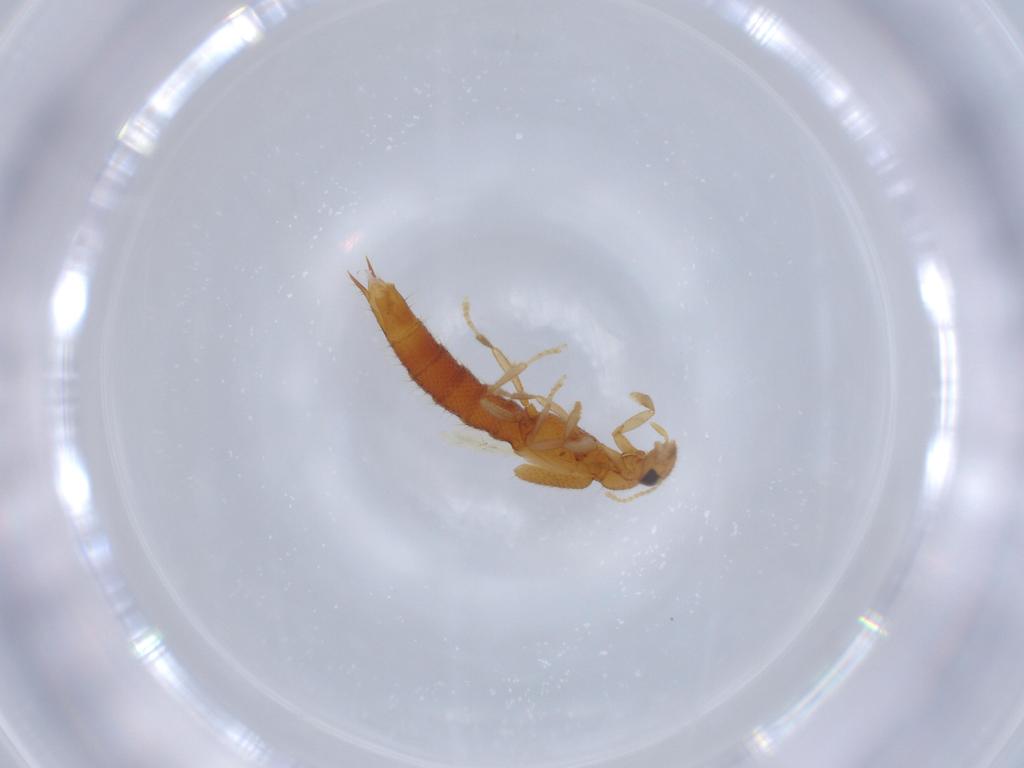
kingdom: Animalia
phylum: Arthropoda
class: Insecta
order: Coleoptera
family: Staphylinidae
